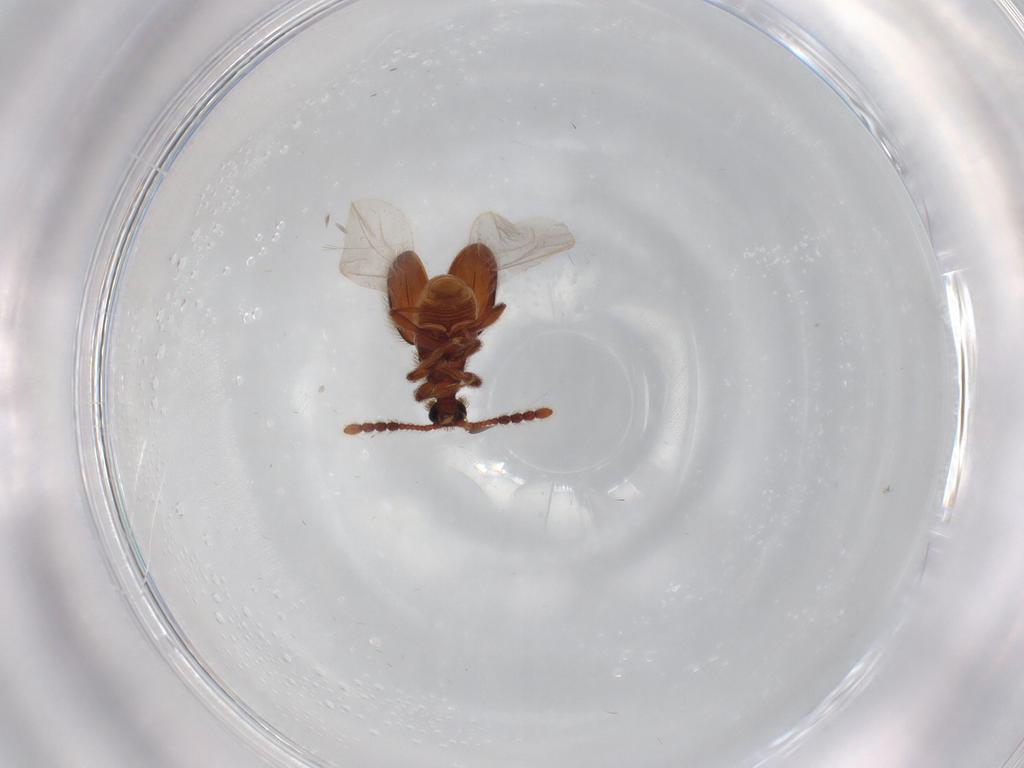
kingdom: Animalia
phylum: Arthropoda
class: Insecta
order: Coleoptera
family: Staphylinidae
